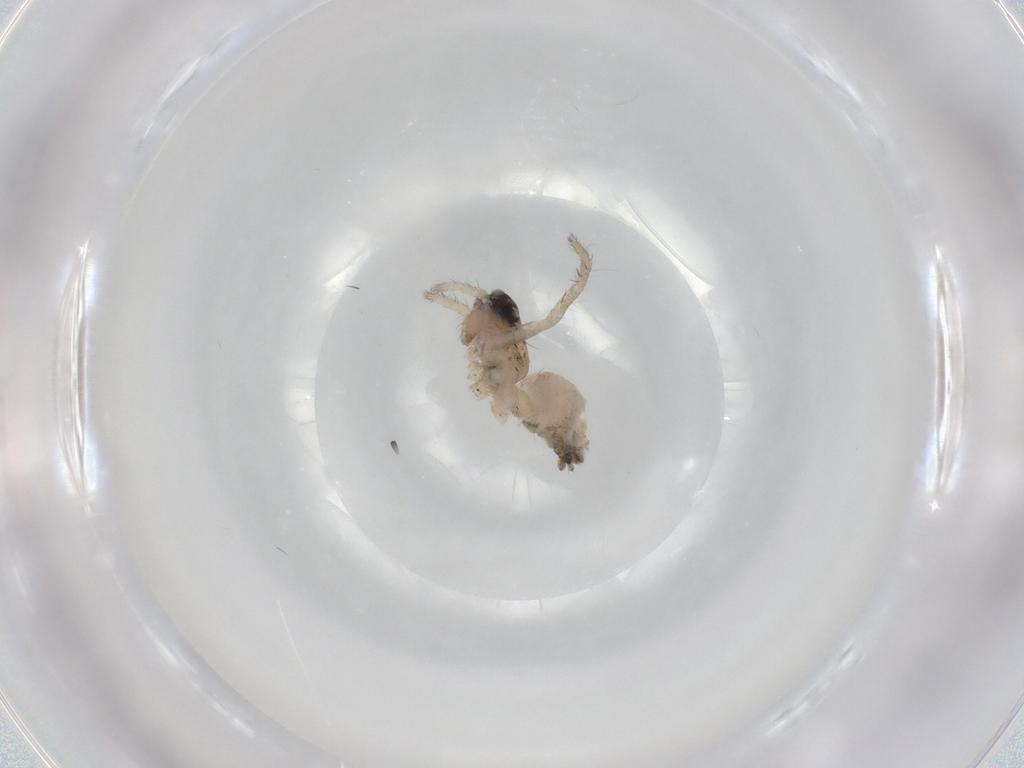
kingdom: Animalia
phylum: Arthropoda
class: Arachnida
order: Araneae
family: Lycosidae
